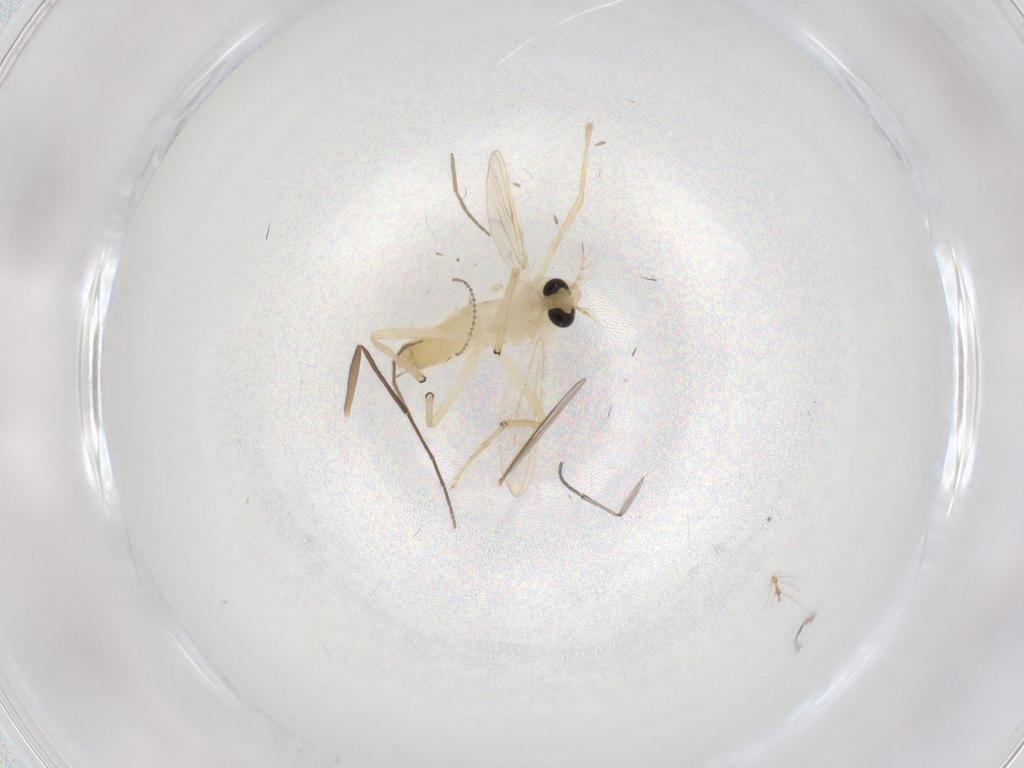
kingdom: Animalia
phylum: Arthropoda
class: Insecta
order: Diptera
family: Chironomidae
